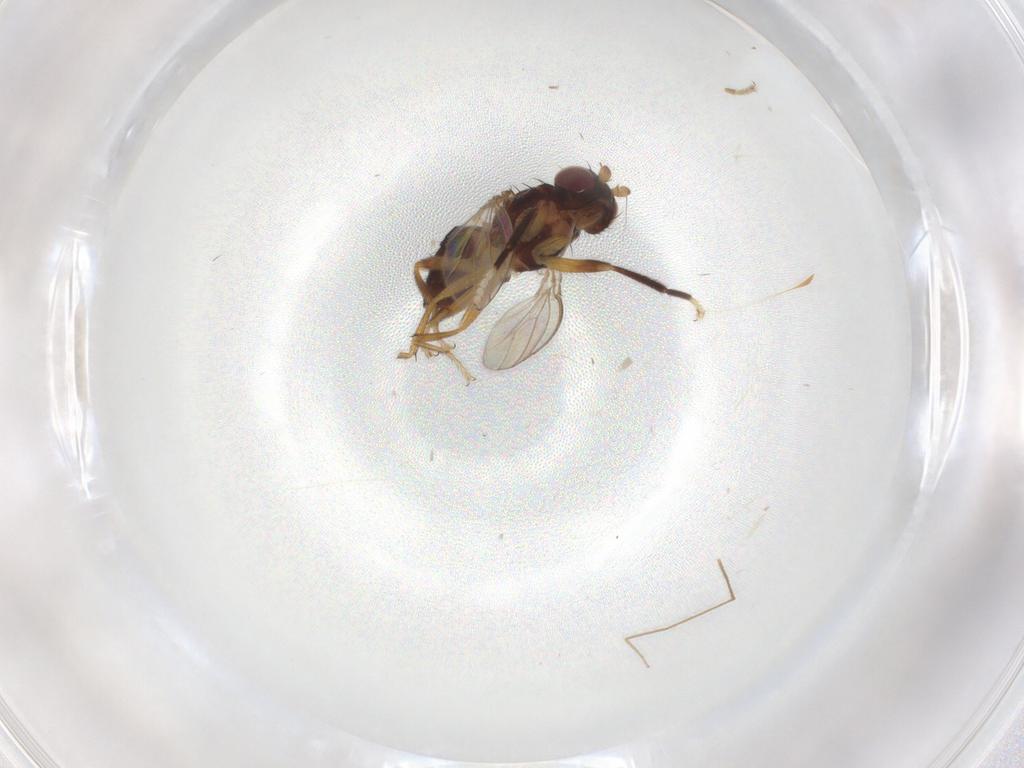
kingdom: Animalia
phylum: Arthropoda
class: Insecta
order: Diptera
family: Cypselosomatidae
